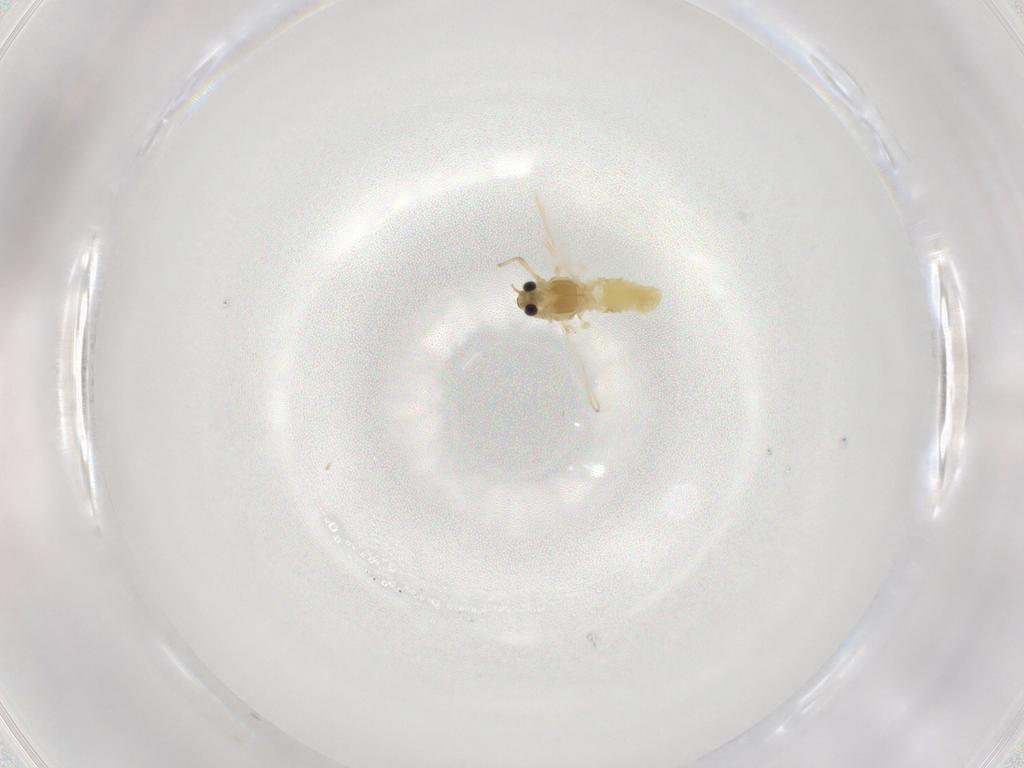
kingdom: Animalia
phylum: Arthropoda
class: Insecta
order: Diptera
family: Chironomidae
